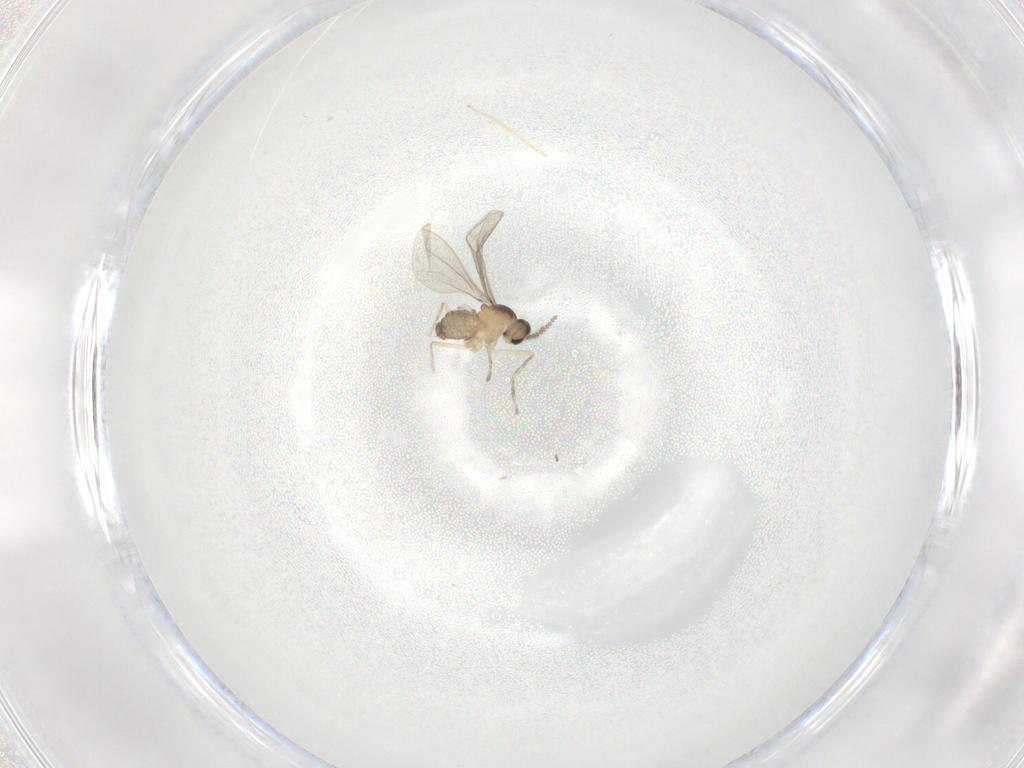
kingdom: Animalia
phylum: Arthropoda
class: Insecta
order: Diptera
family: Cecidomyiidae
